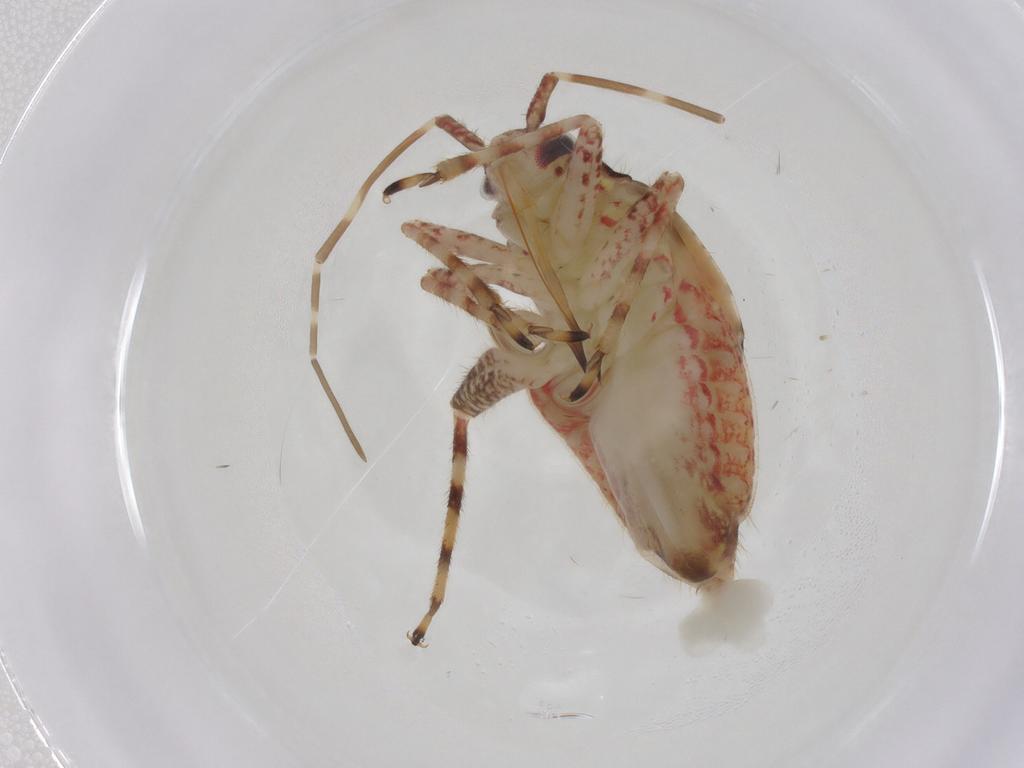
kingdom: Animalia
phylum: Arthropoda
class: Insecta
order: Hemiptera
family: Miridae
